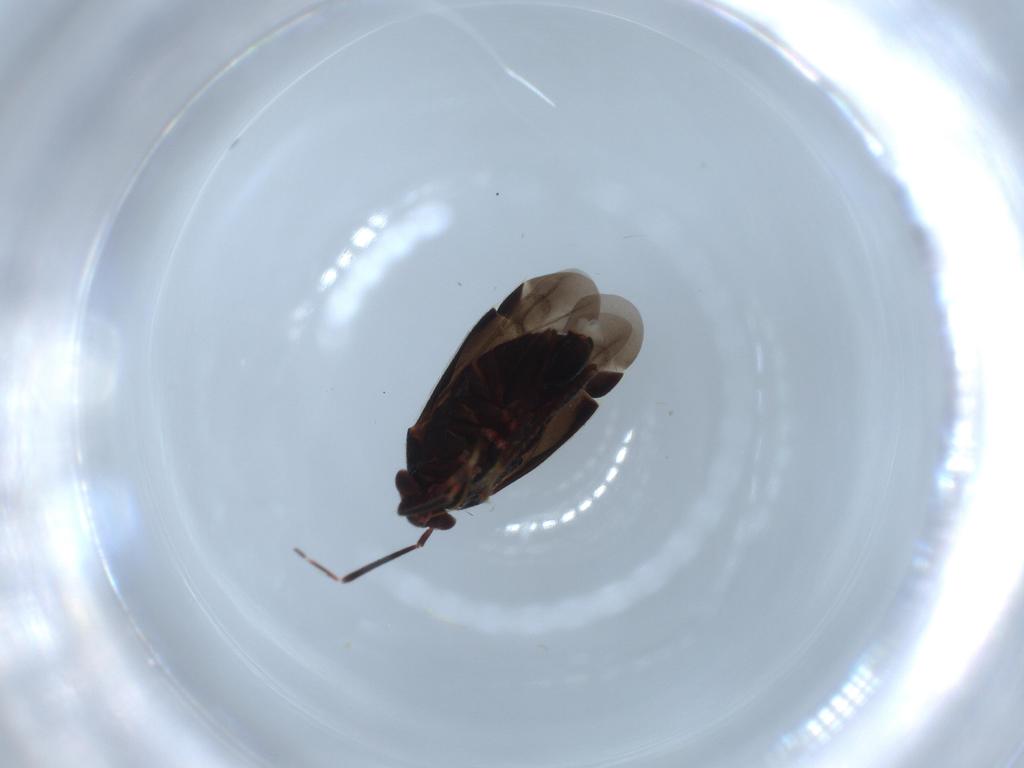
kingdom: Animalia
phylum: Arthropoda
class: Insecta
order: Hemiptera
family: Miridae
